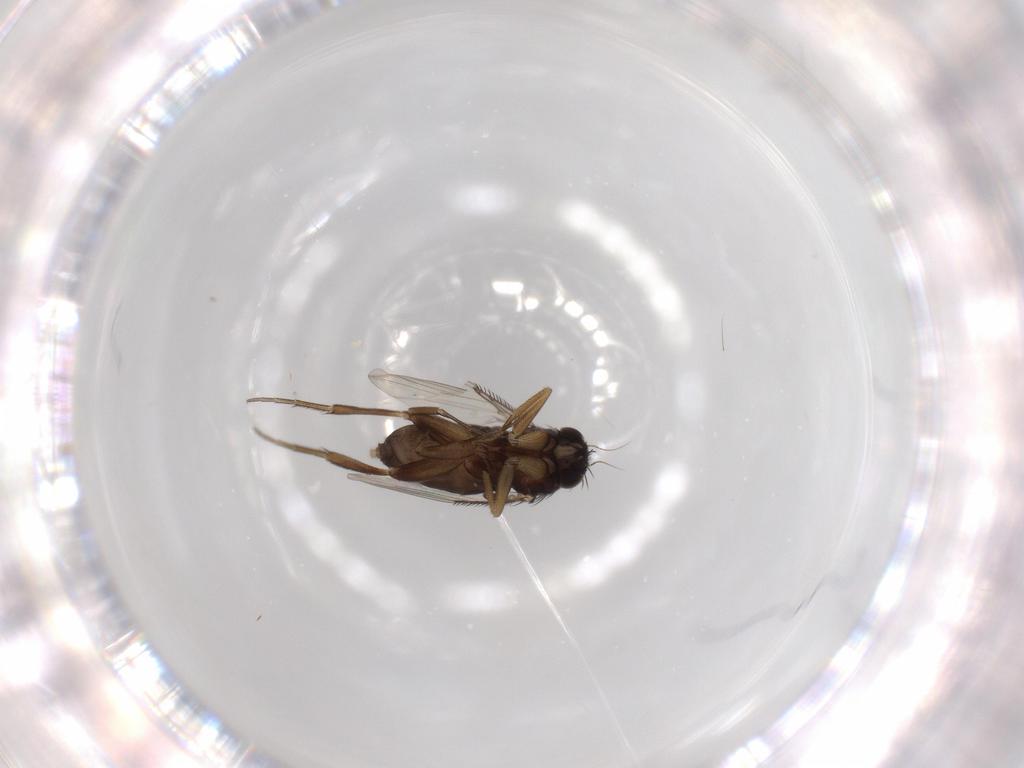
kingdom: Animalia
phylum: Arthropoda
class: Insecta
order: Diptera
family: Phoridae
